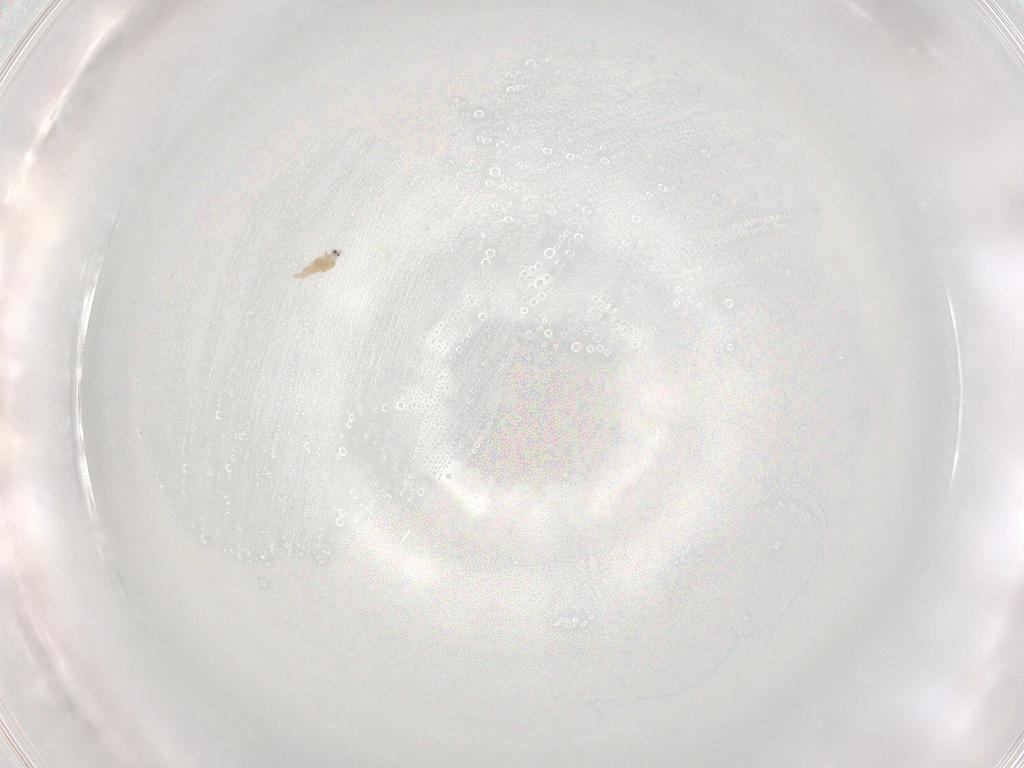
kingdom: Animalia
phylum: Arthropoda
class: Insecta
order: Hemiptera
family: Diaspididae
